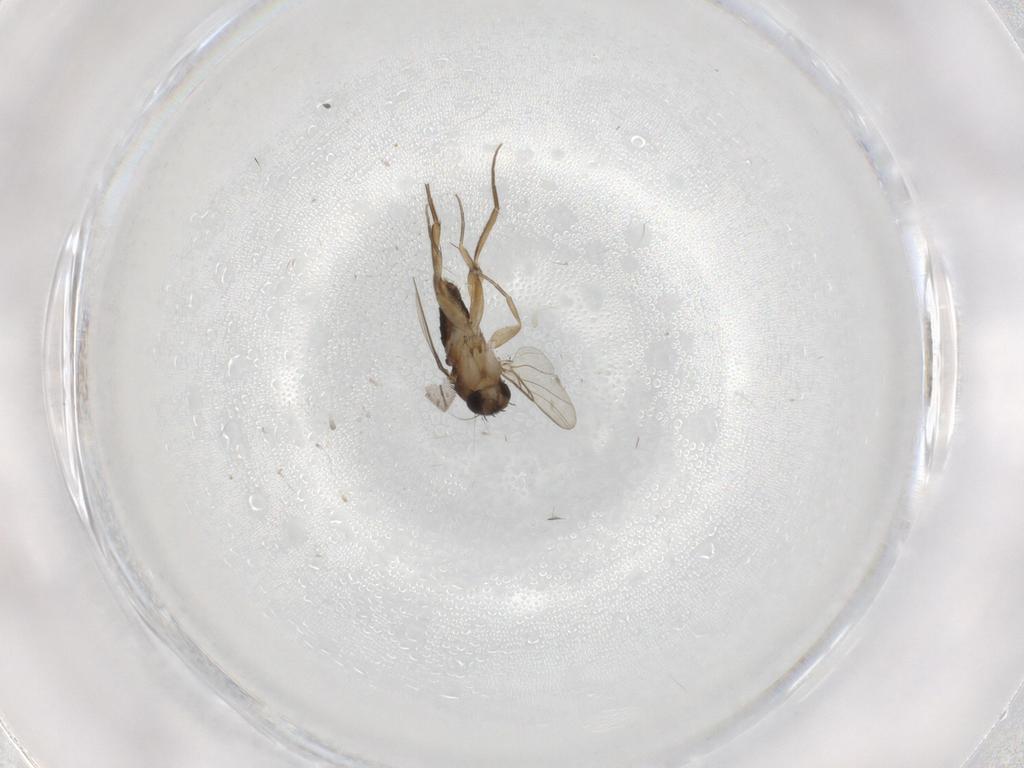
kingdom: Animalia
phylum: Arthropoda
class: Insecta
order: Diptera
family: Phoridae
